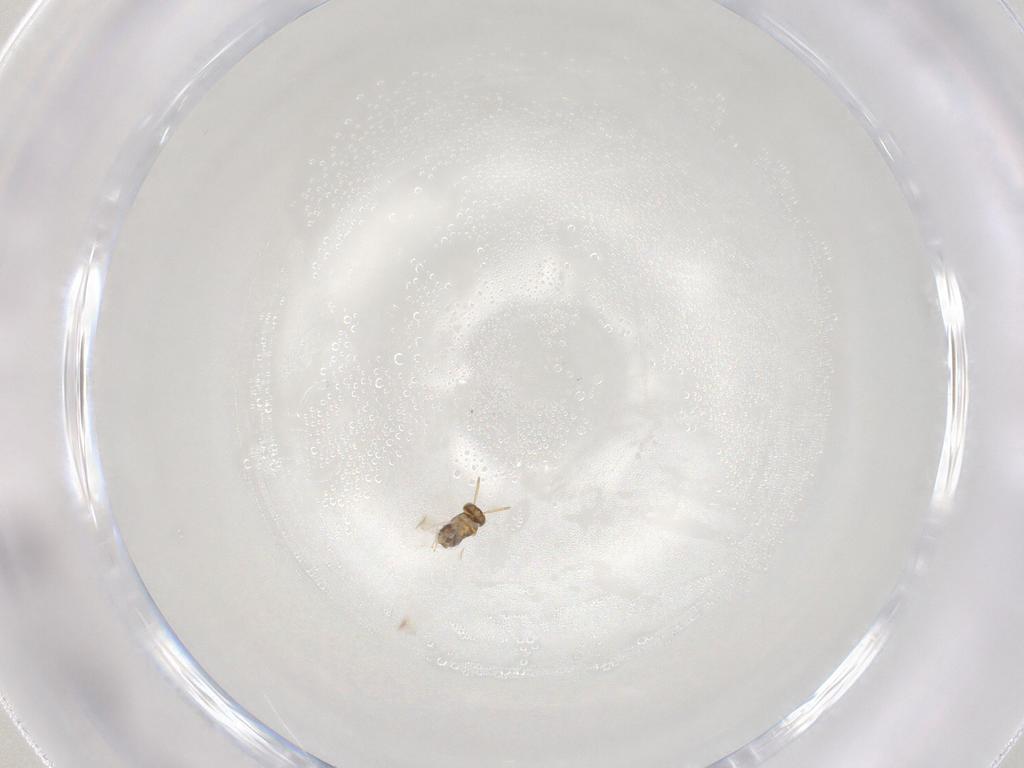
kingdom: Animalia
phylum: Arthropoda
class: Insecta
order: Hymenoptera
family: Aphelinidae
